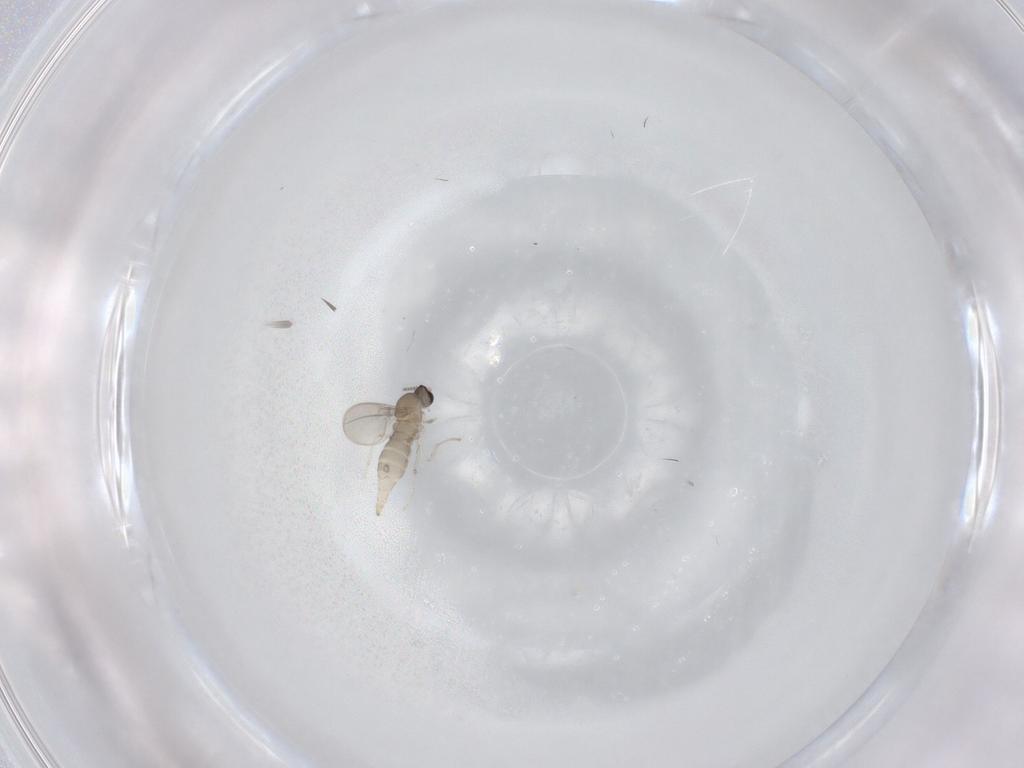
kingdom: Animalia
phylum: Arthropoda
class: Insecta
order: Diptera
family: Cecidomyiidae
